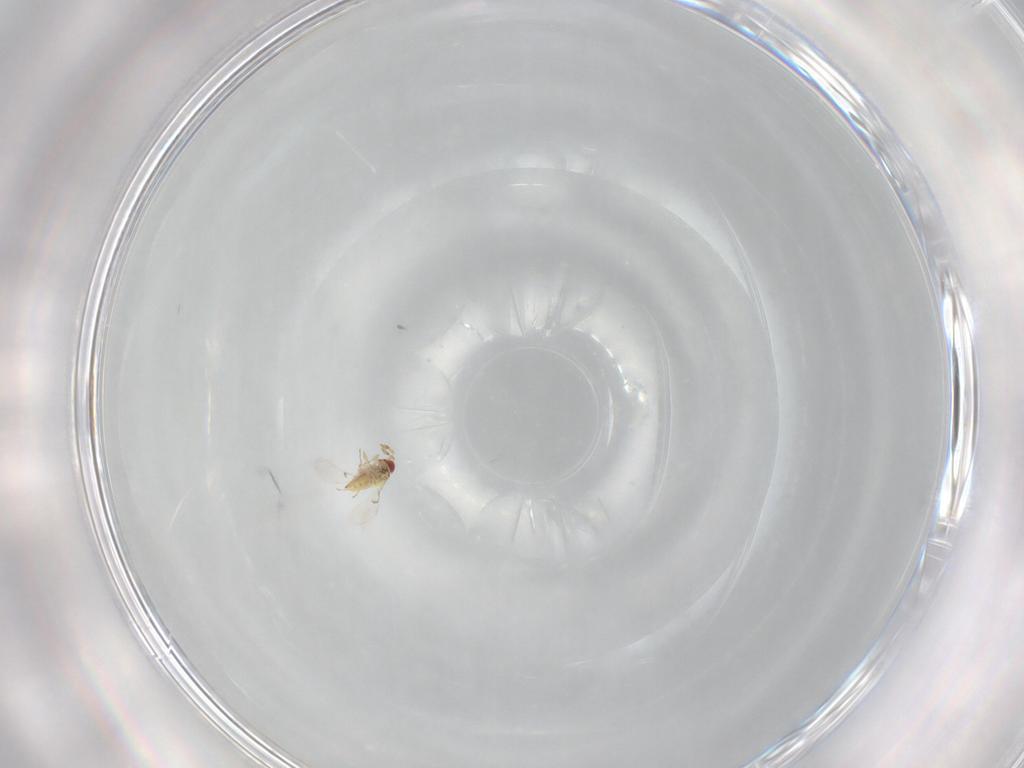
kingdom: Animalia
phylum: Arthropoda
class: Insecta
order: Hymenoptera
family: Trichogrammatidae
